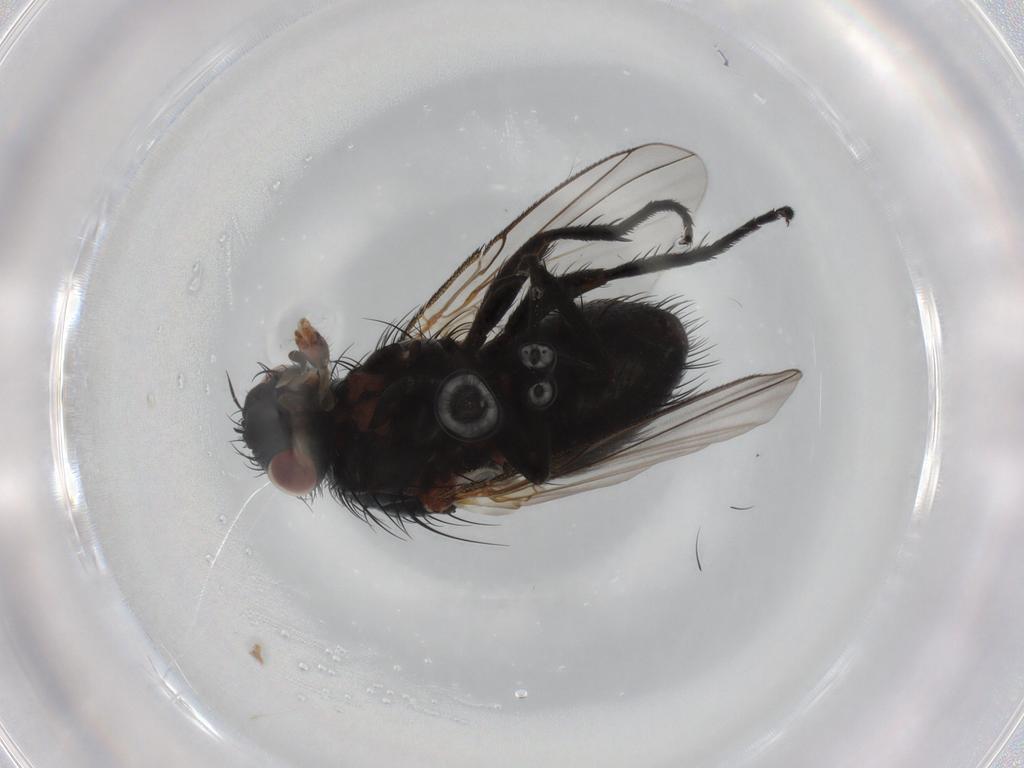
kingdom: Animalia
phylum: Arthropoda
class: Insecta
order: Diptera
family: Tachinidae
